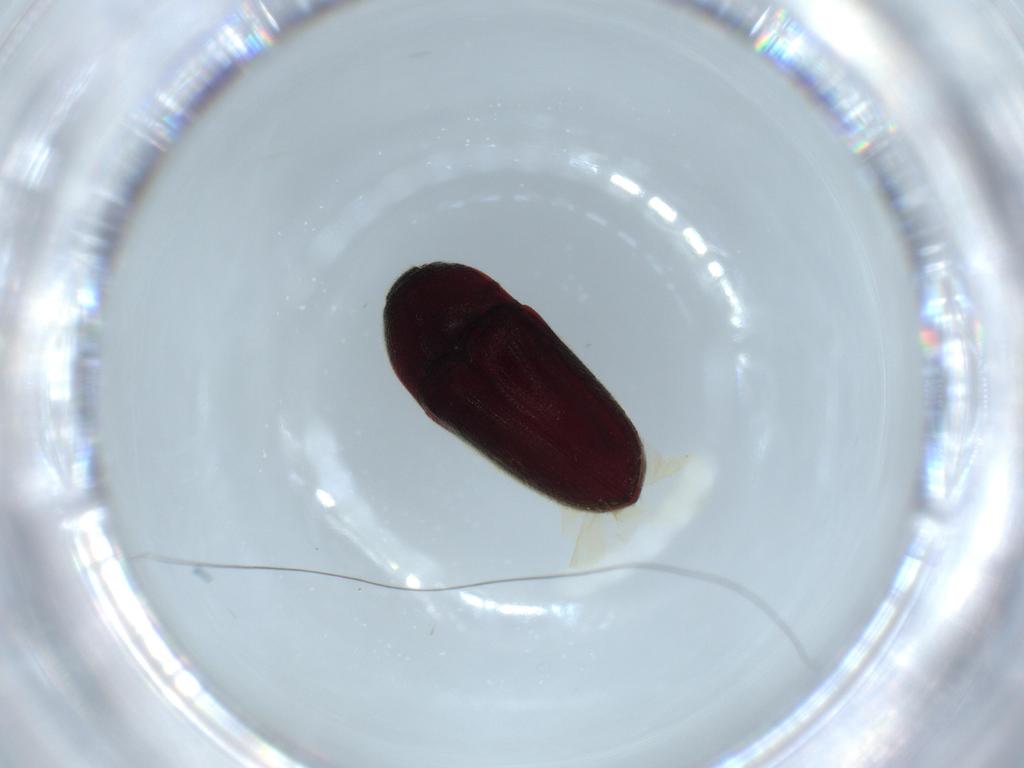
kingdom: Animalia
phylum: Arthropoda
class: Insecta
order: Coleoptera
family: Throscidae
